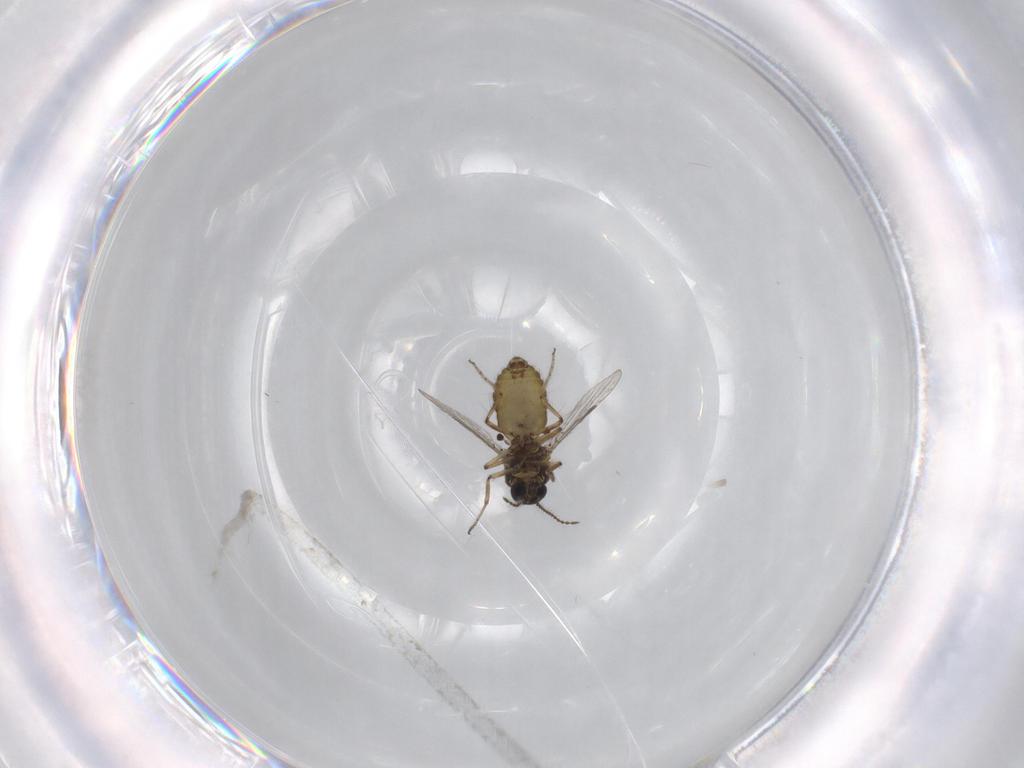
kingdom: Animalia
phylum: Arthropoda
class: Insecta
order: Diptera
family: Ceratopogonidae
